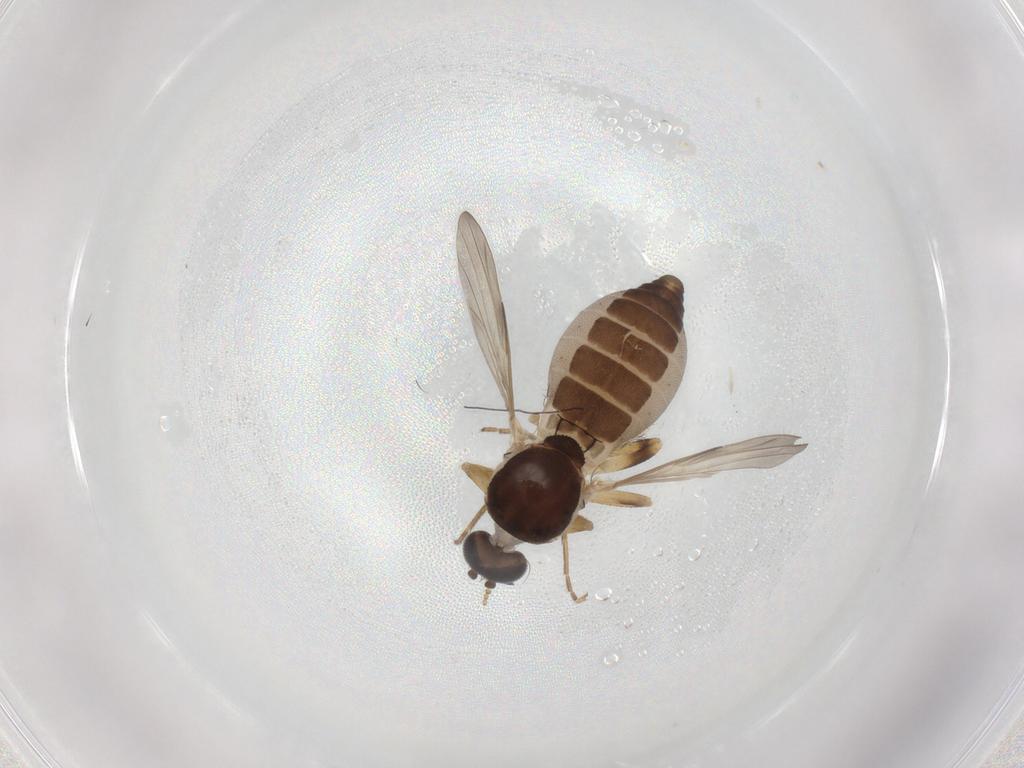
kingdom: Animalia
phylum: Arthropoda
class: Insecta
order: Diptera
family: Ceratopogonidae
